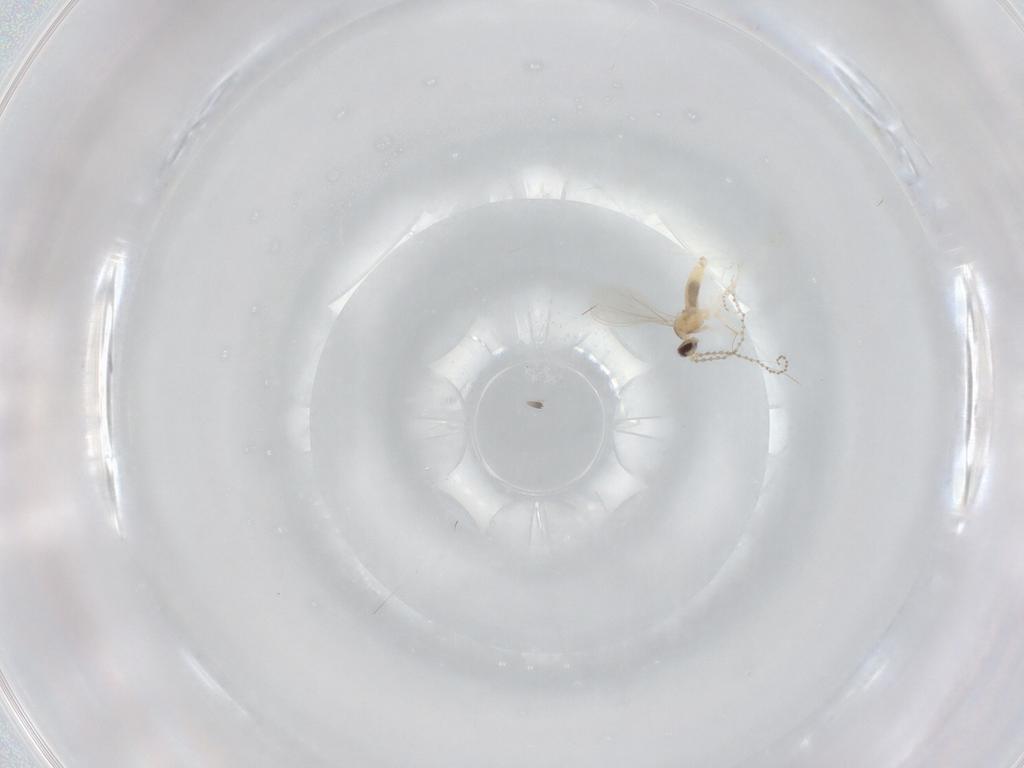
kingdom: Animalia
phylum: Arthropoda
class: Insecta
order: Diptera
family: Cecidomyiidae
